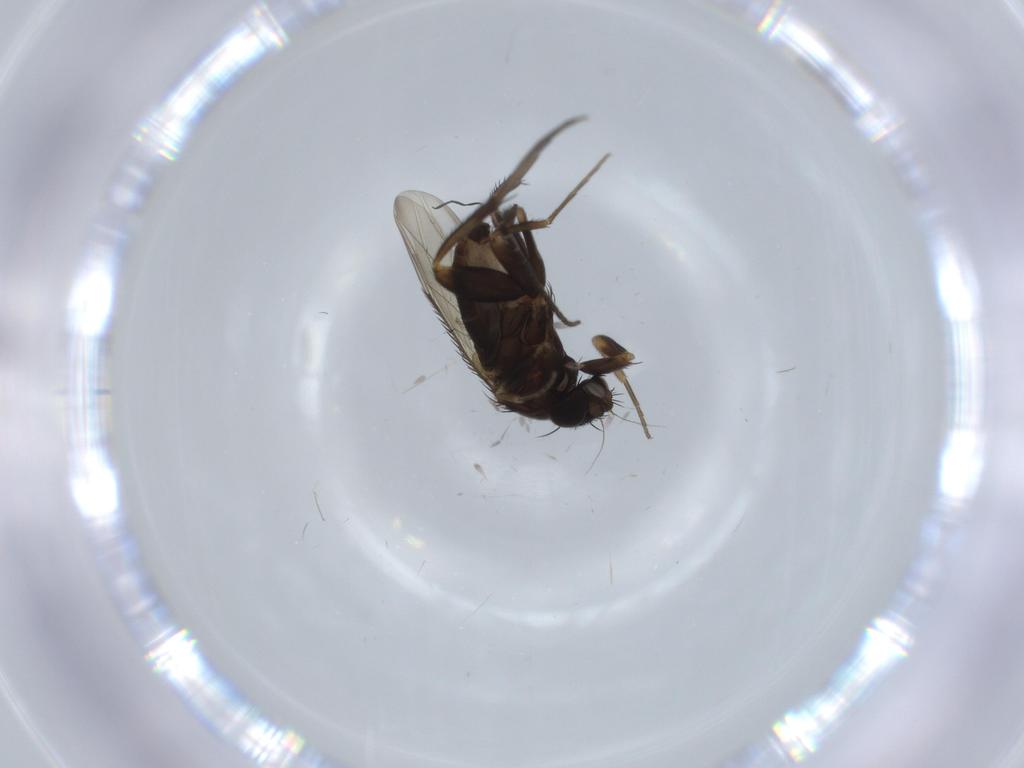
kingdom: Animalia
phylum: Arthropoda
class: Insecta
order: Diptera
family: Phoridae
